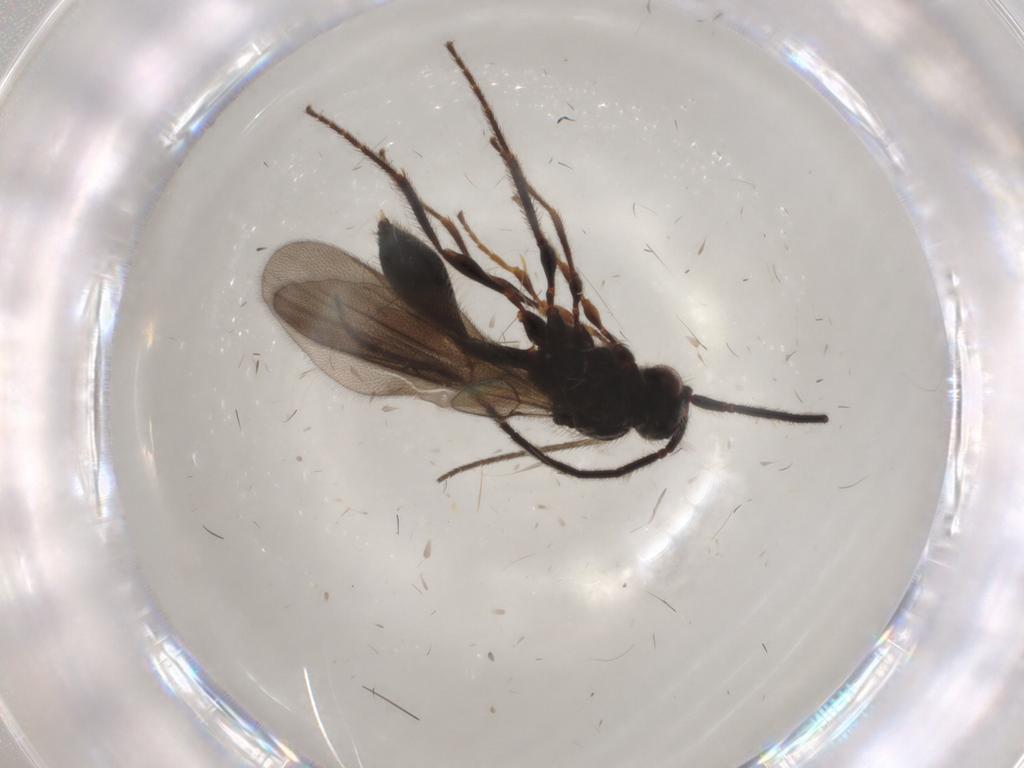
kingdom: Animalia
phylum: Arthropoda
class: Insecta
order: Hymenoptera
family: Diapriidae
